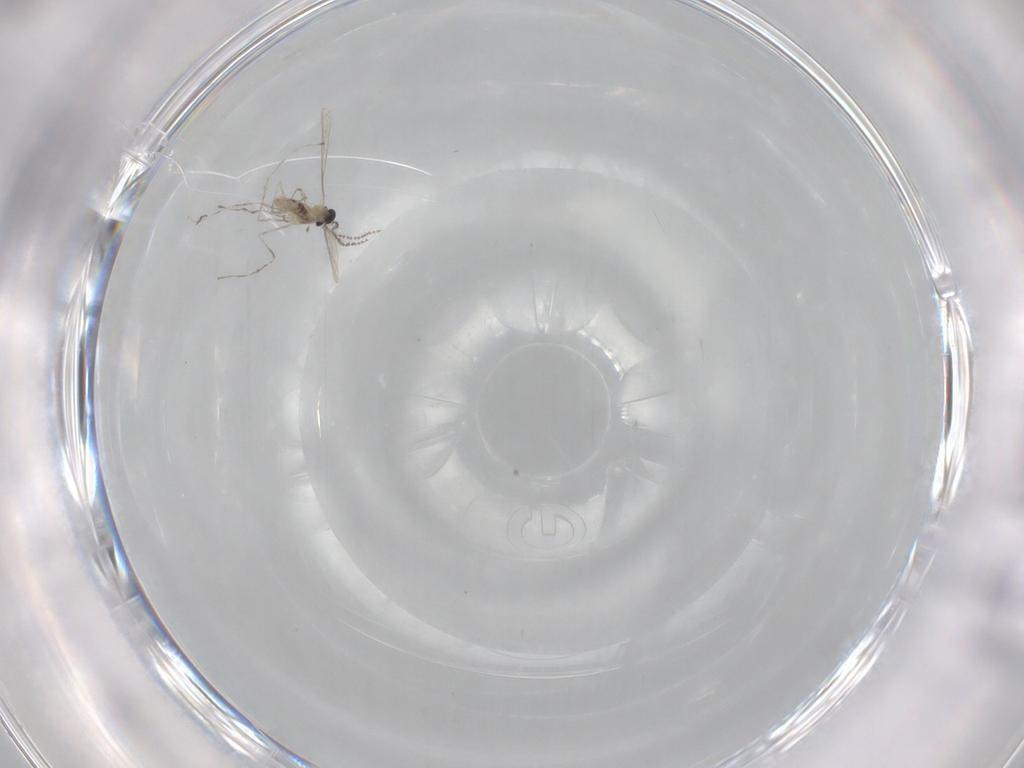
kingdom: Animalia
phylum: Arthropoda
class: Insecta
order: Diptera
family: Cecidomyiidae
